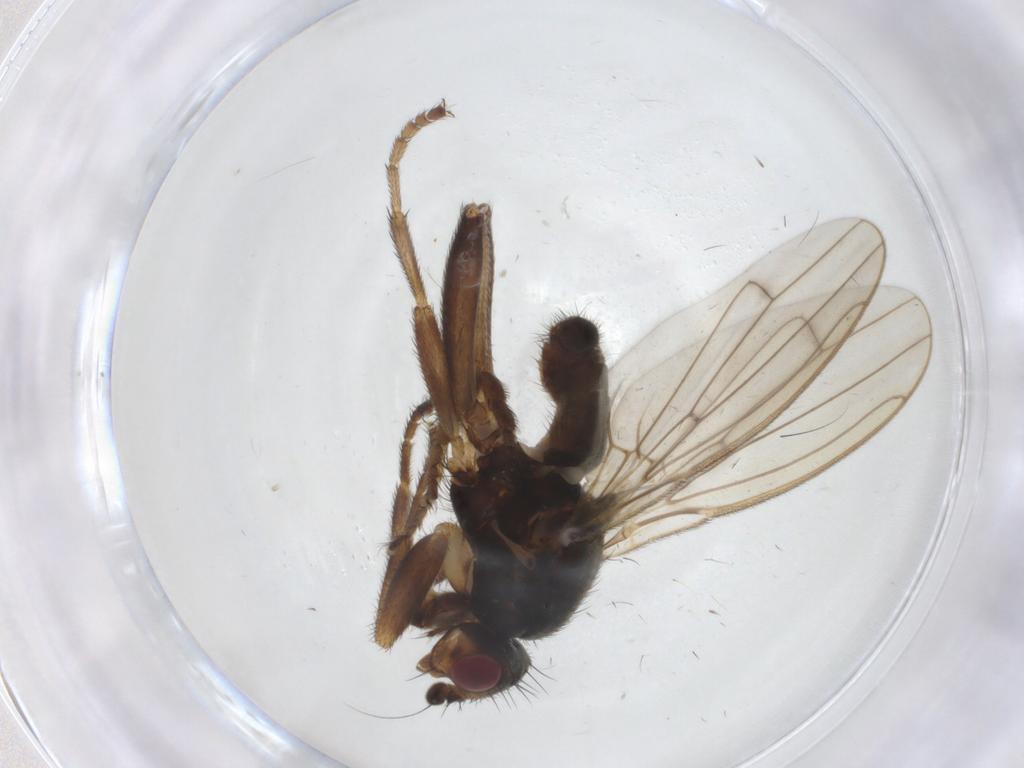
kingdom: Animalia
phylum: Arthropoda
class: Insecta
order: Diptera
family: Sphaeroceridae
